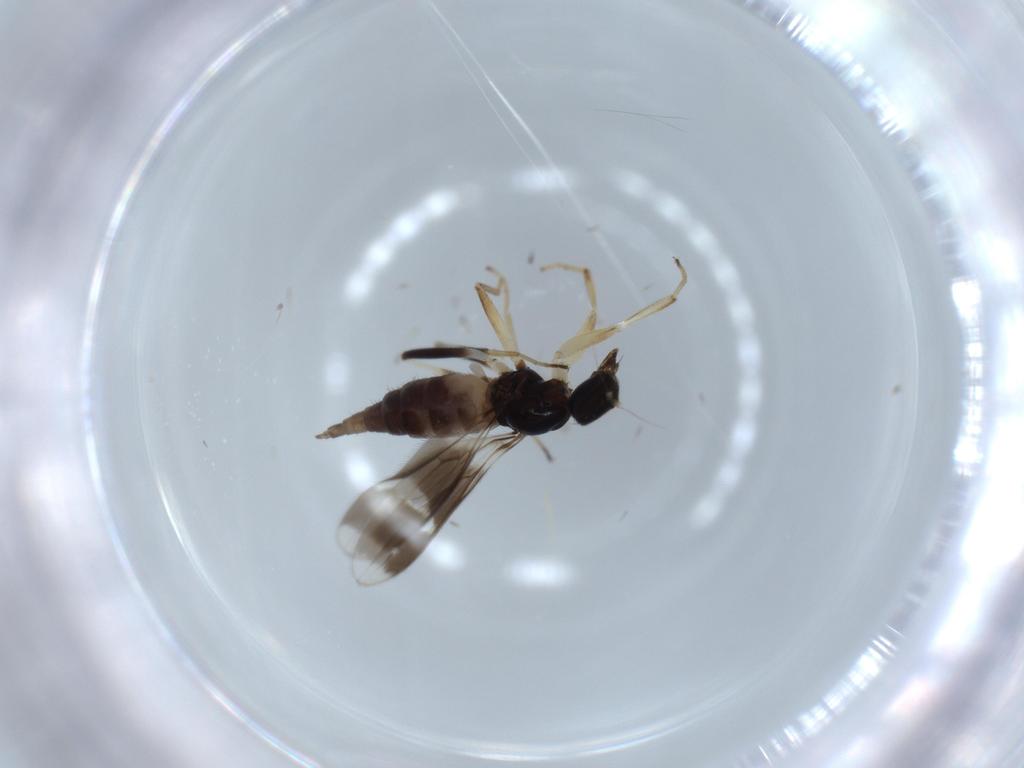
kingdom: Animalia
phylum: Arthropoda
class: Insecta
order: Diptera
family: Hybotidae
